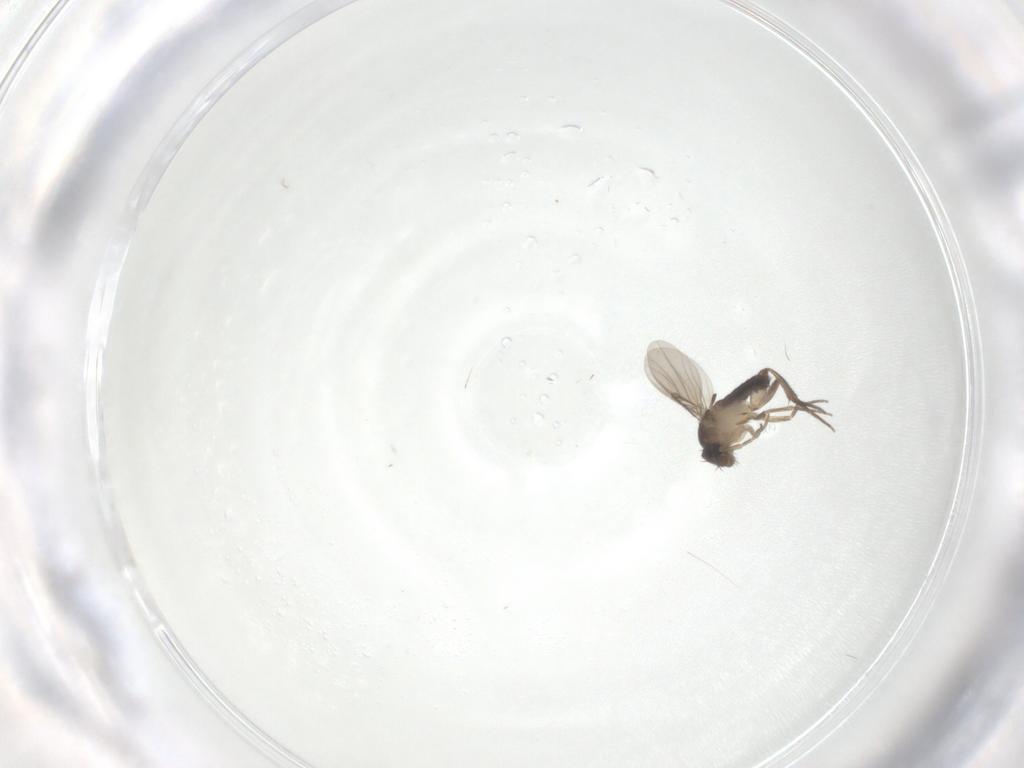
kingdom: Animalia
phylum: Arthropoda
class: Insecta
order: Diptera
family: Phoridae
